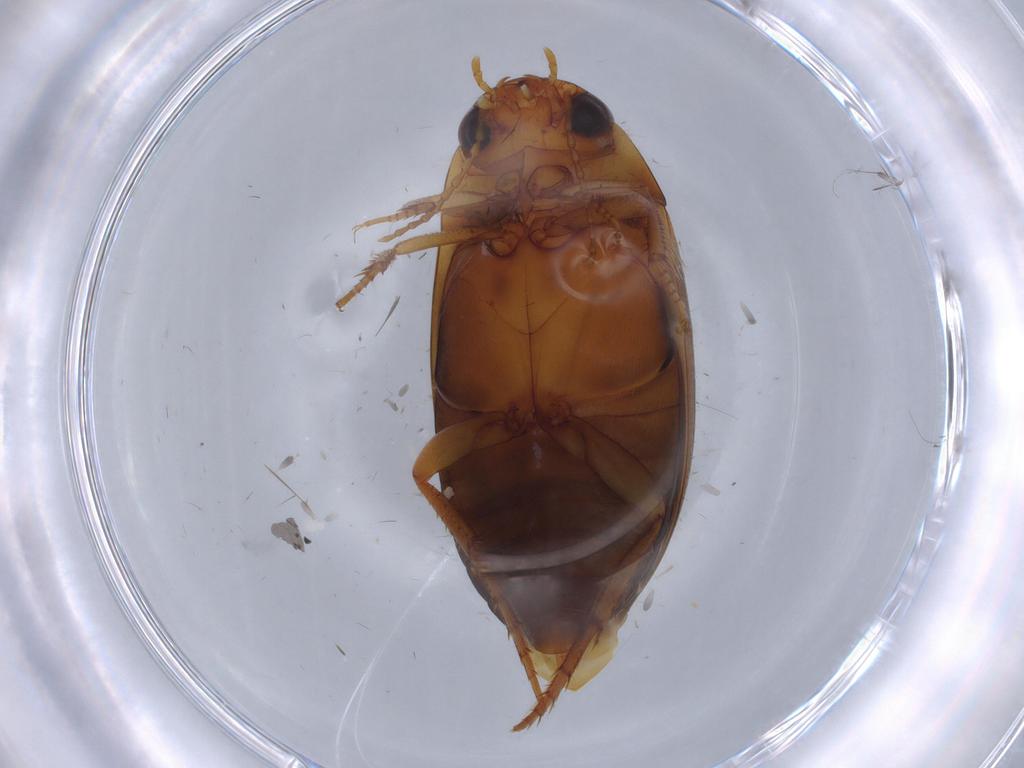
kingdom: Animalia
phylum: Arthropoda
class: Insecta
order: Coleoptera
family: Dytiscidae
